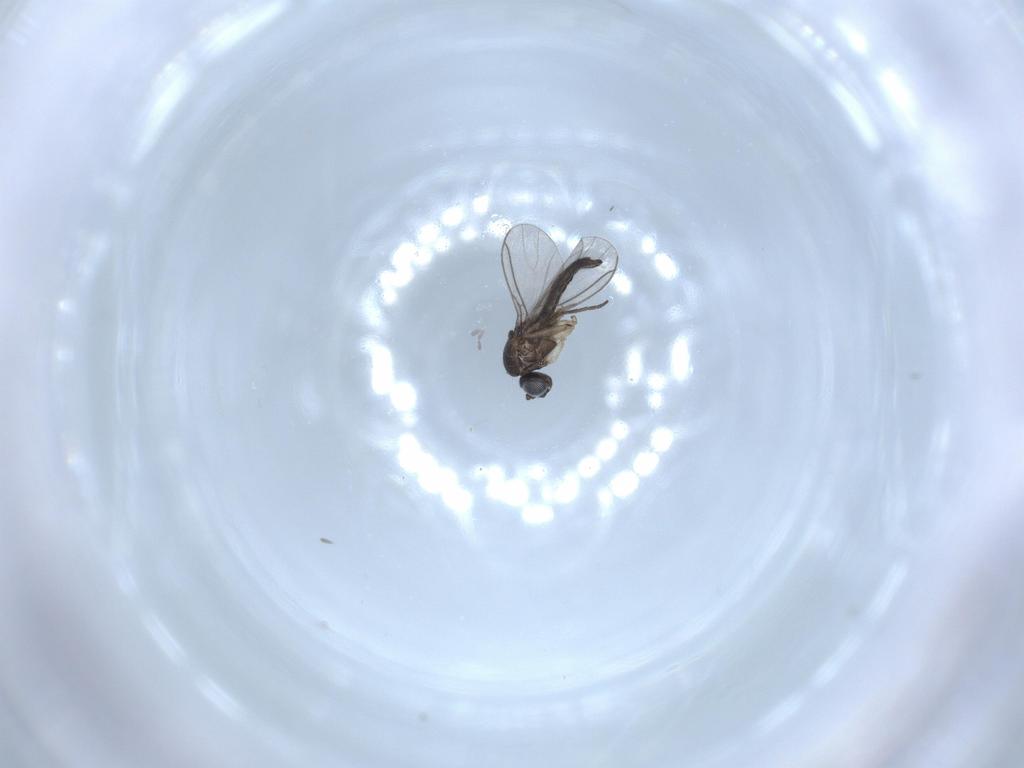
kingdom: Animalia
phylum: Arthropoda
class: Insecta
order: Diptera
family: Sciaridae
